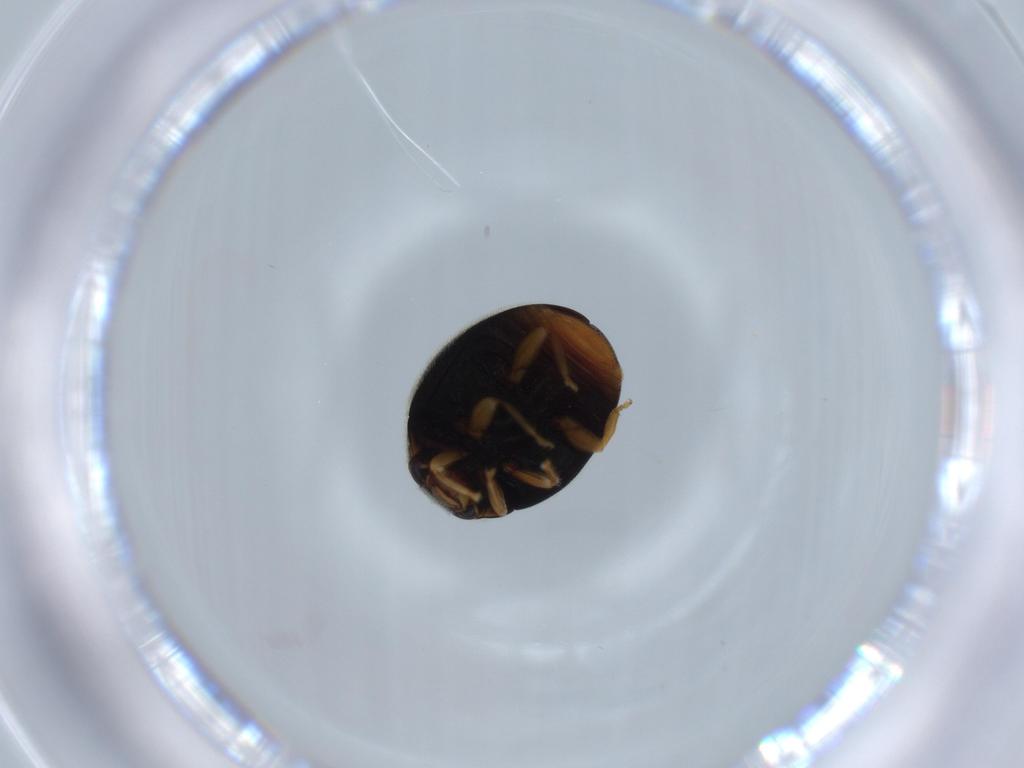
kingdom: Animalia
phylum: Arthropoda
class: Insecta
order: Coleoptera
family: Coccinellidae
